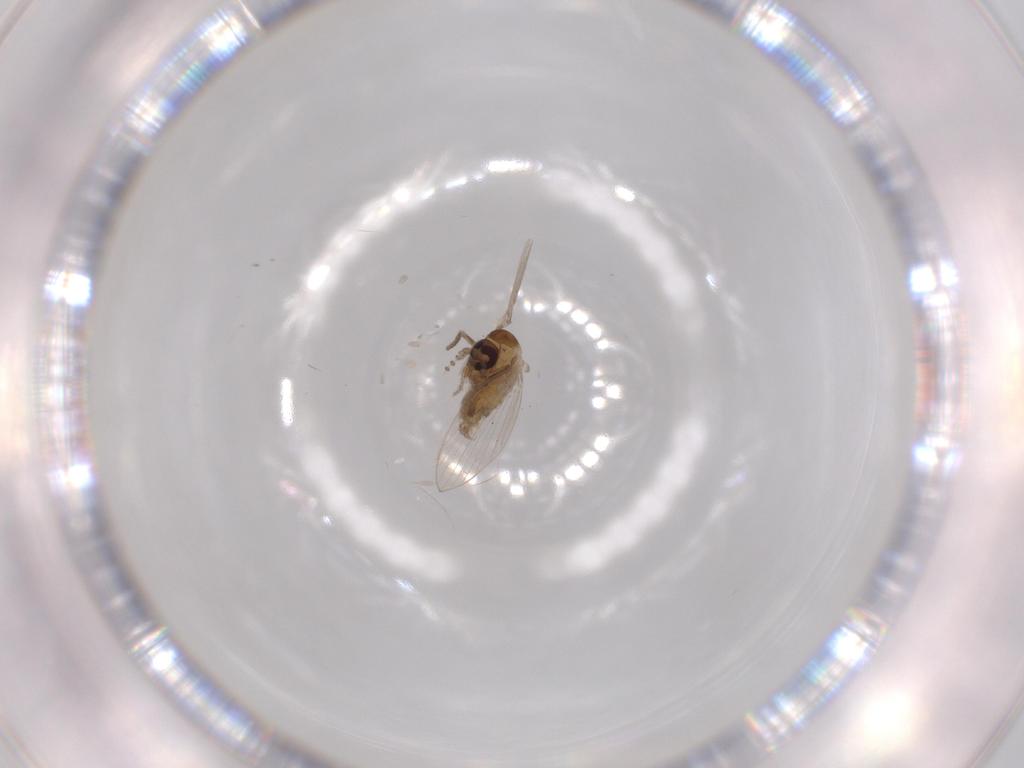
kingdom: Animalia
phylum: Arthropoda
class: Insecta
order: Diptera
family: Psychodidae
